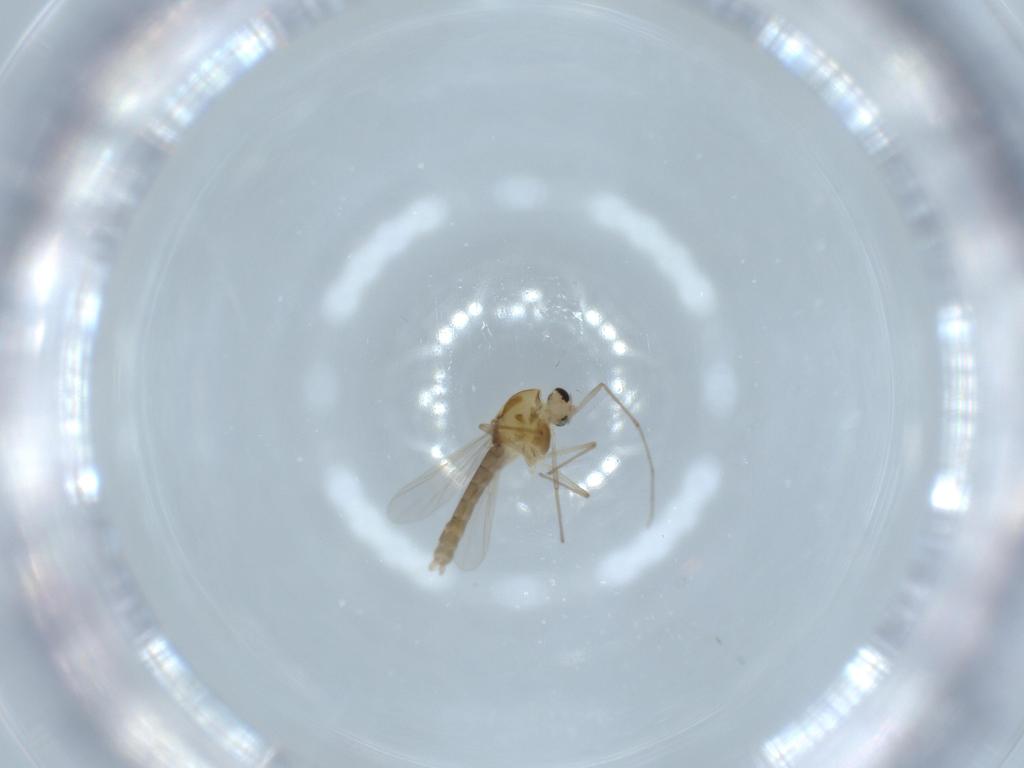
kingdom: Animalia
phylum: Arthropoda
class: Insecta
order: Diptera
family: Chironomidae
